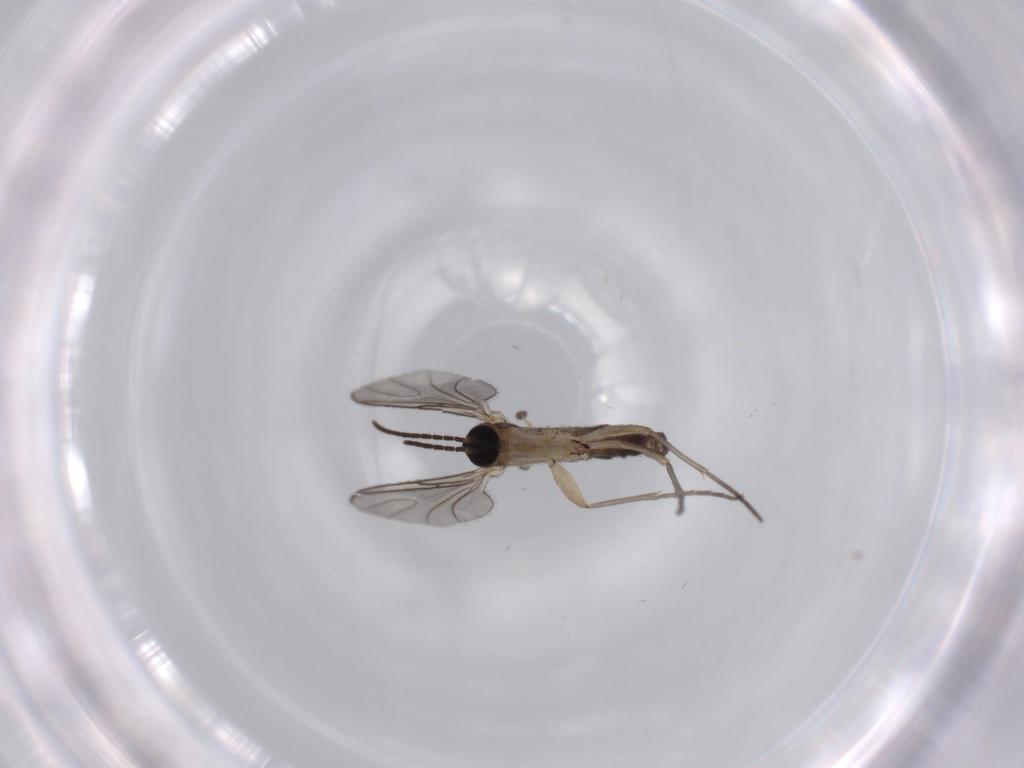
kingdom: Animalia
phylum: Arthropoda
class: Insecta
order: Diptera
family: Sciaridae
